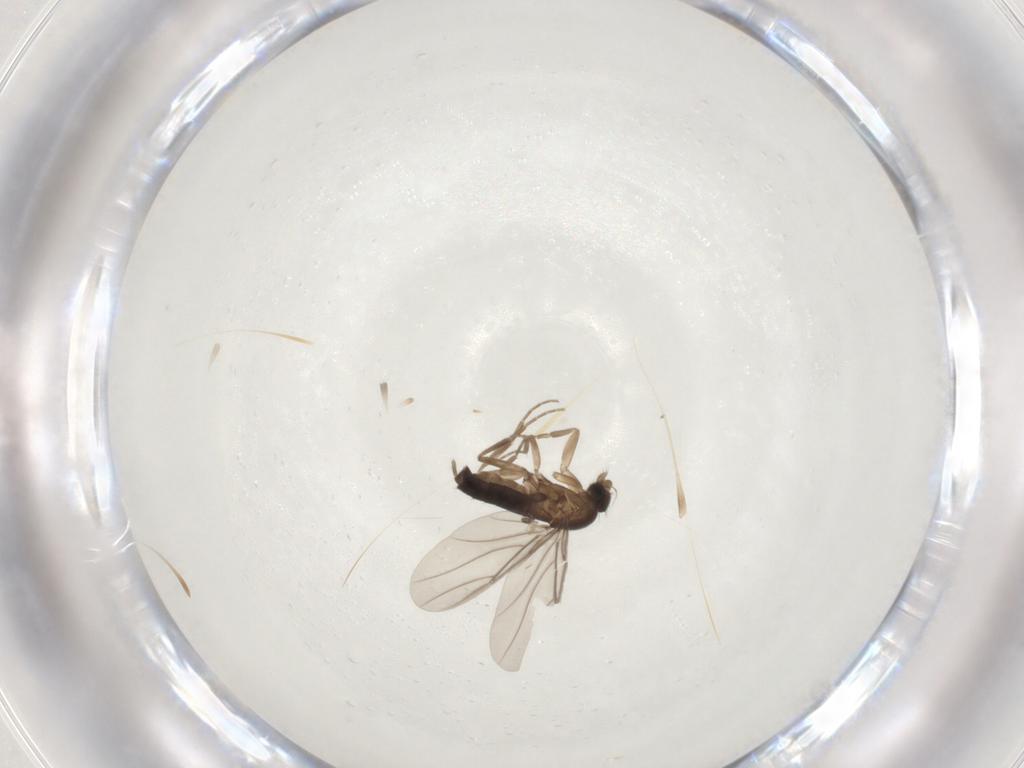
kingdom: Animalia
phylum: Arthropoda
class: Insecta
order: Diptera
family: Phoridae
